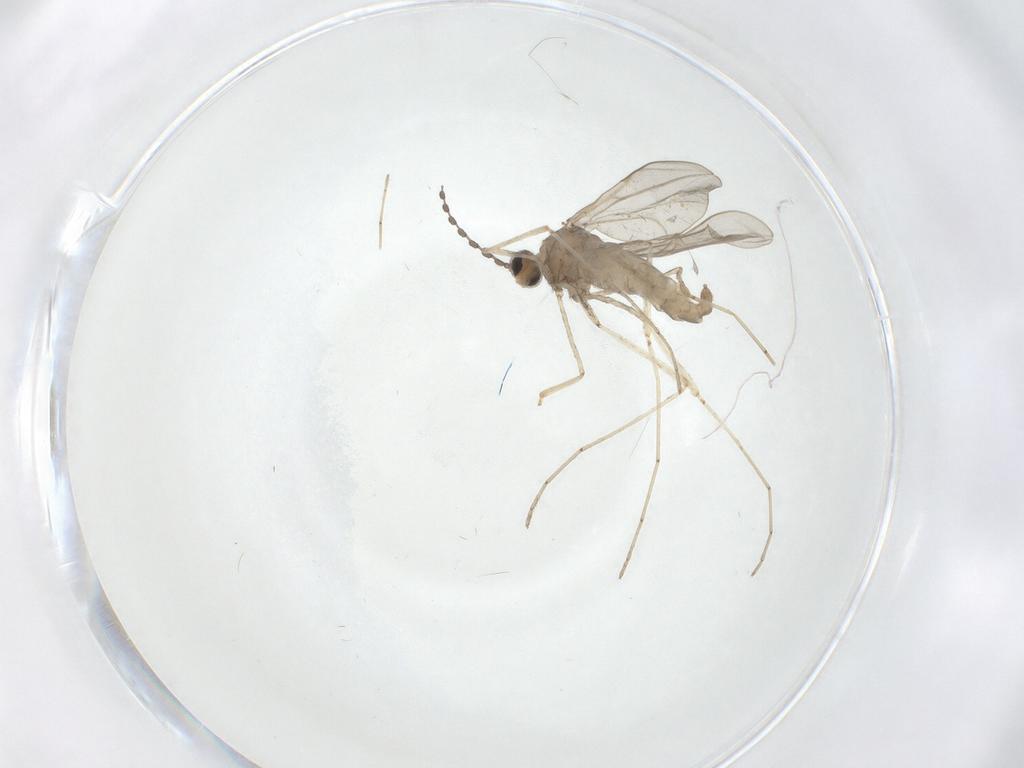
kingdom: Animalia
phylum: Arthropoda
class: Insecta
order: Diptera
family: Cecidomyiidae
